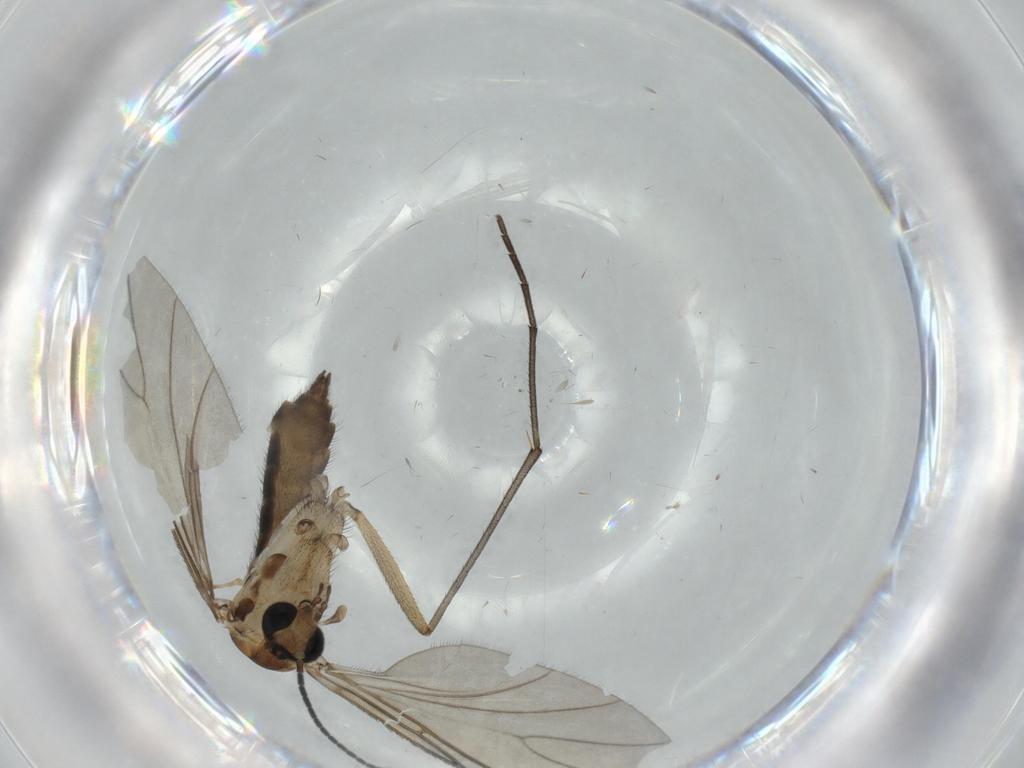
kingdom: Animalia
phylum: Arthropoda
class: Insecta
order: Diptera
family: Sciaridae
